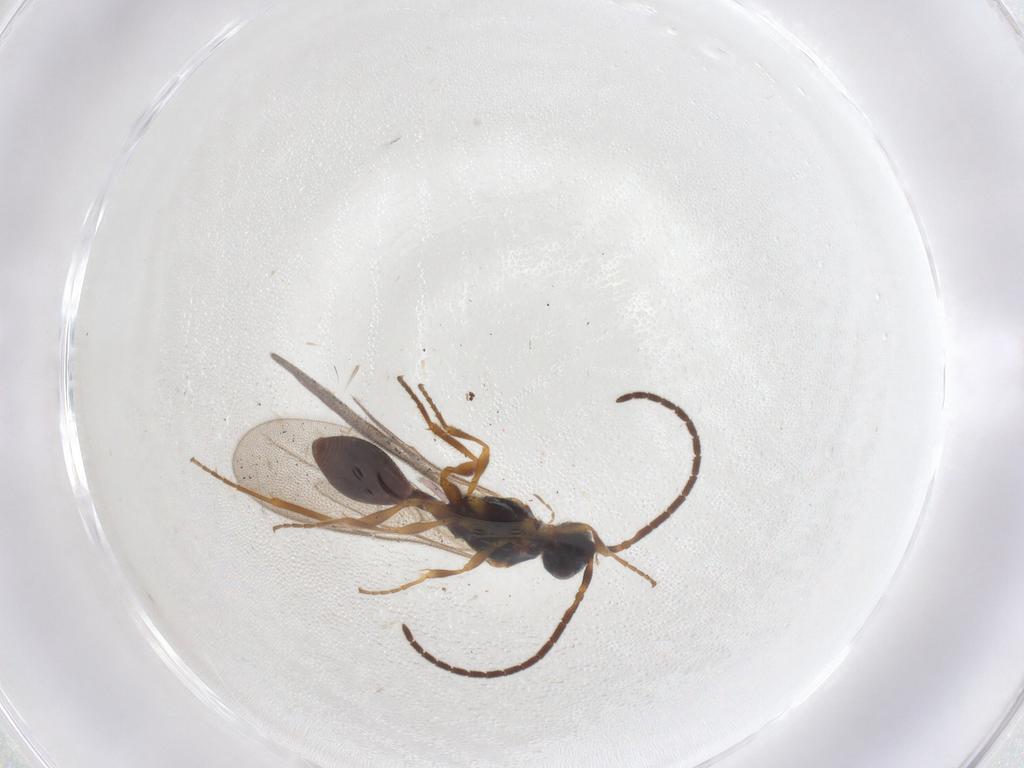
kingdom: Animalia
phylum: Arthropoda
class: Insecta
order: Hymenoptera
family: Diapriidae
